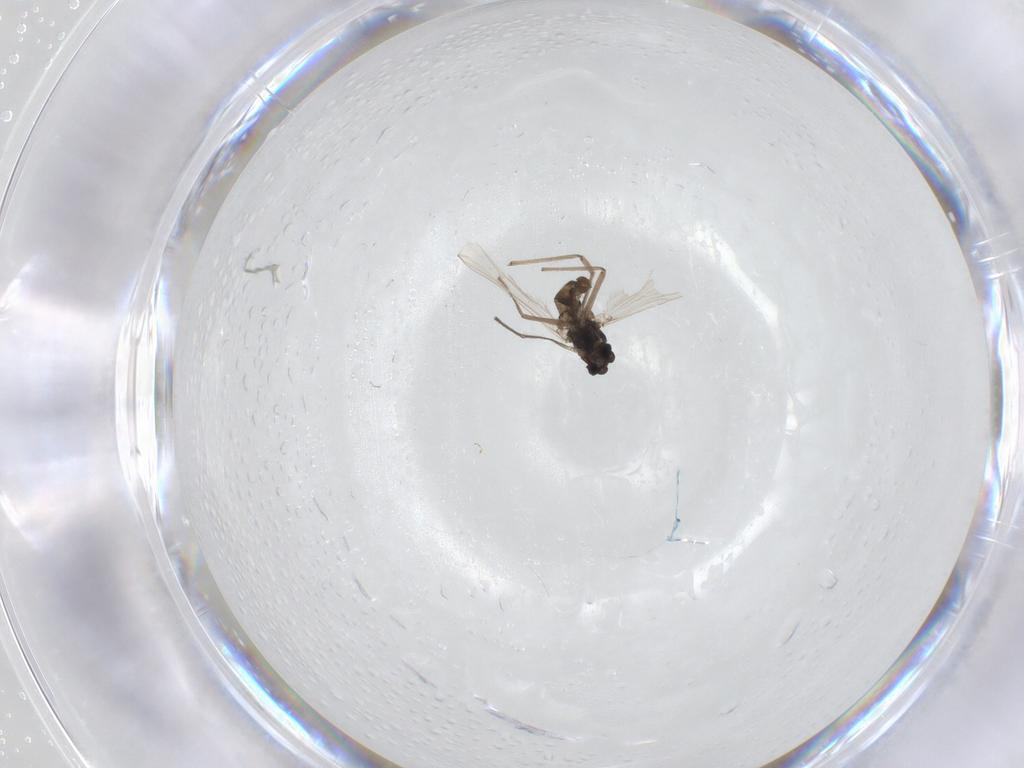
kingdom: Animalia
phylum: Arthropoda
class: Insecta
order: Diptera
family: Chironomidae
